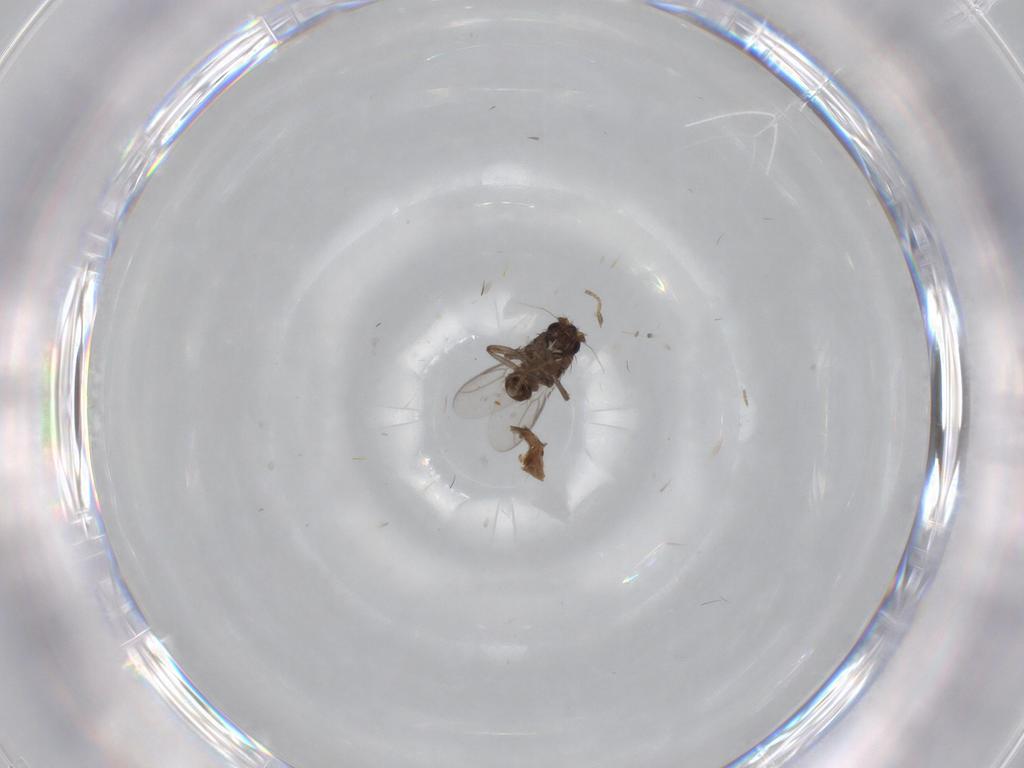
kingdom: Animalia
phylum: Arthropoda
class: Insecta
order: Diptera
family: Sphaeroceridae
